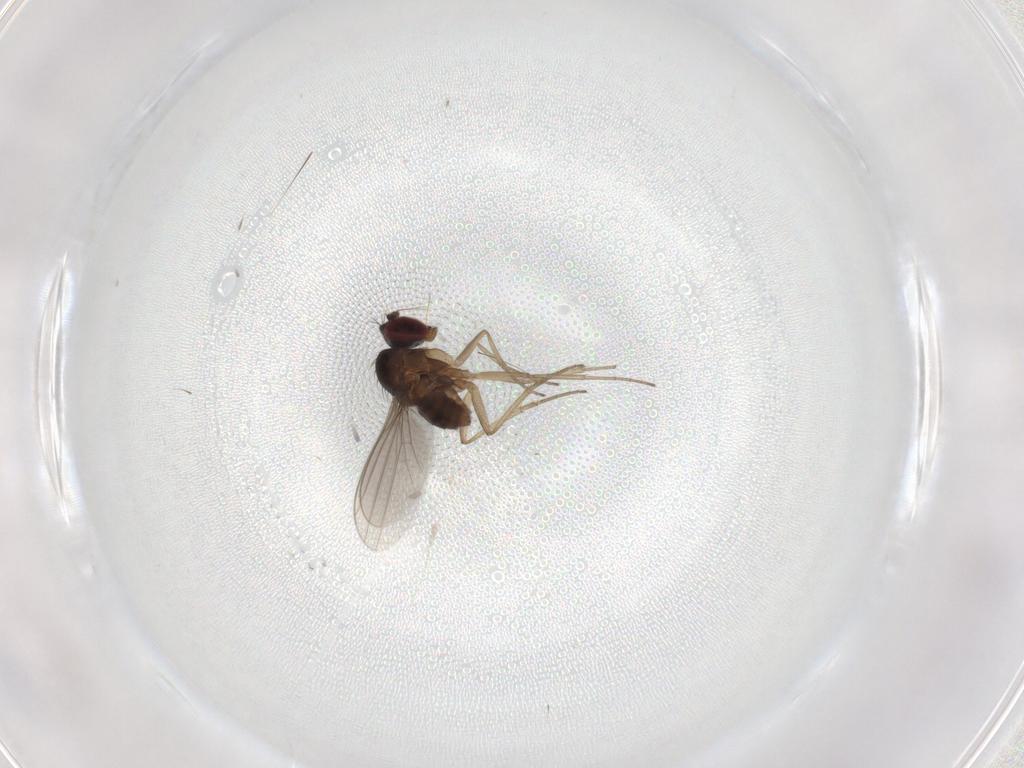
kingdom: Animalia
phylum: Arthropoda
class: Insecta
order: Diptera
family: Dolichopodidae
